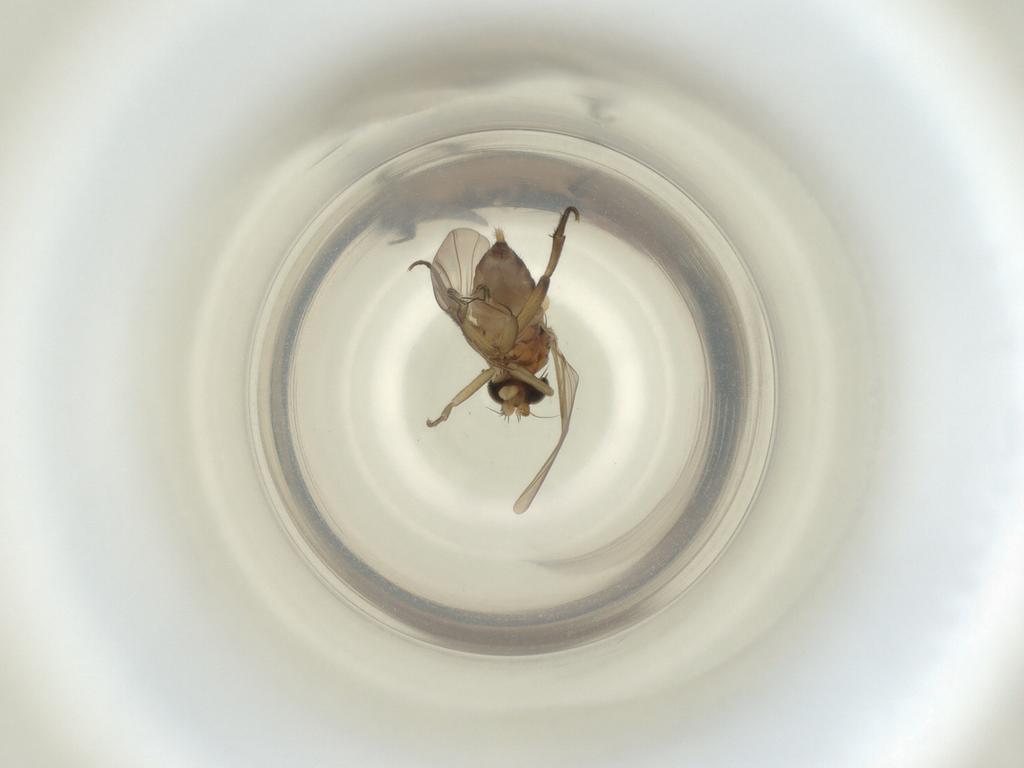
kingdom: Animalia
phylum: Arthropoda
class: Insecta
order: Diptera
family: Phoridae
